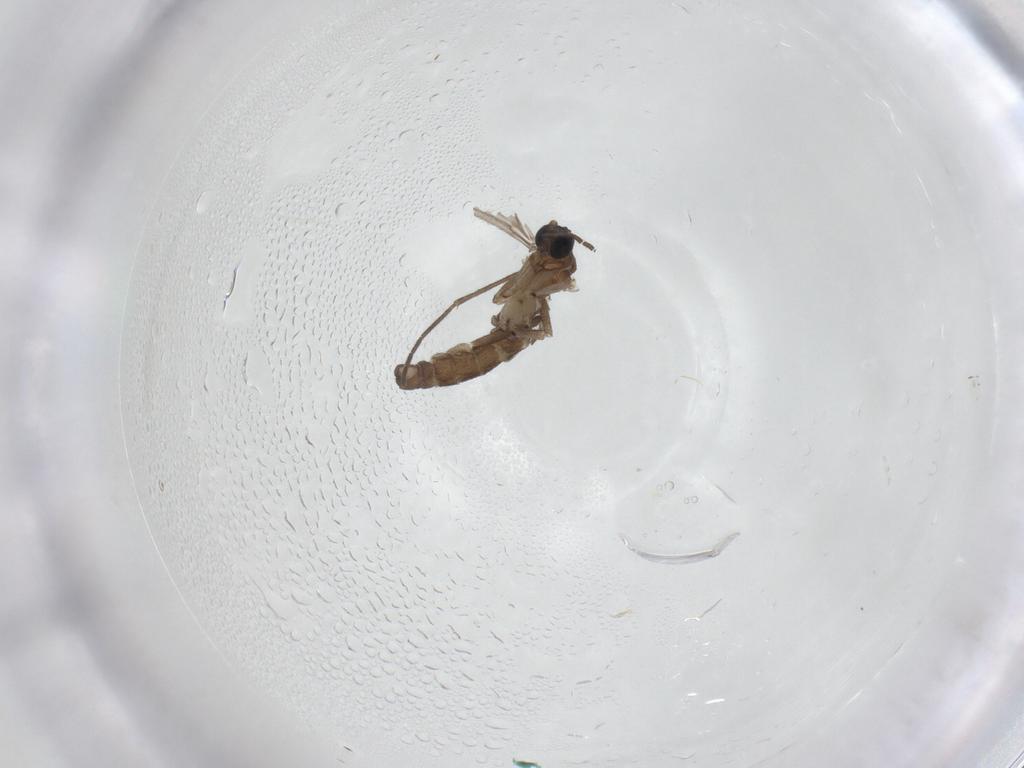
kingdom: Animalia
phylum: Arthropoda
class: Insecta
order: Diptera
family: Sciaridae
